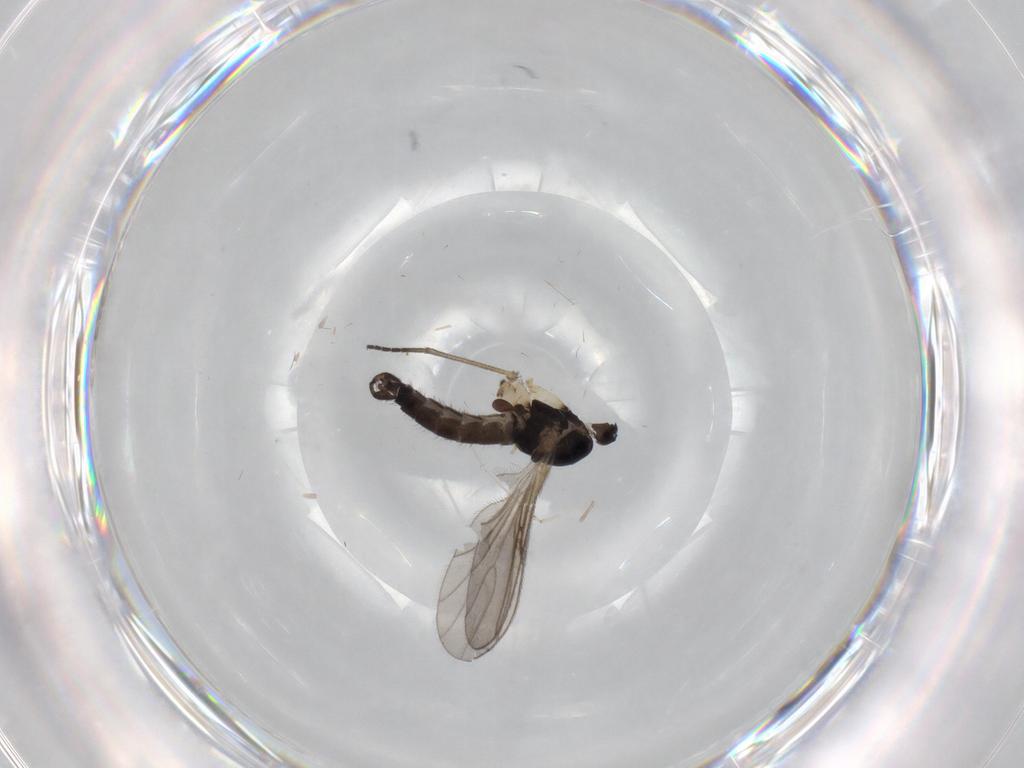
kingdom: Animalia
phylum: Arthropoda
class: Insecta
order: Diptera
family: Sciaridae
